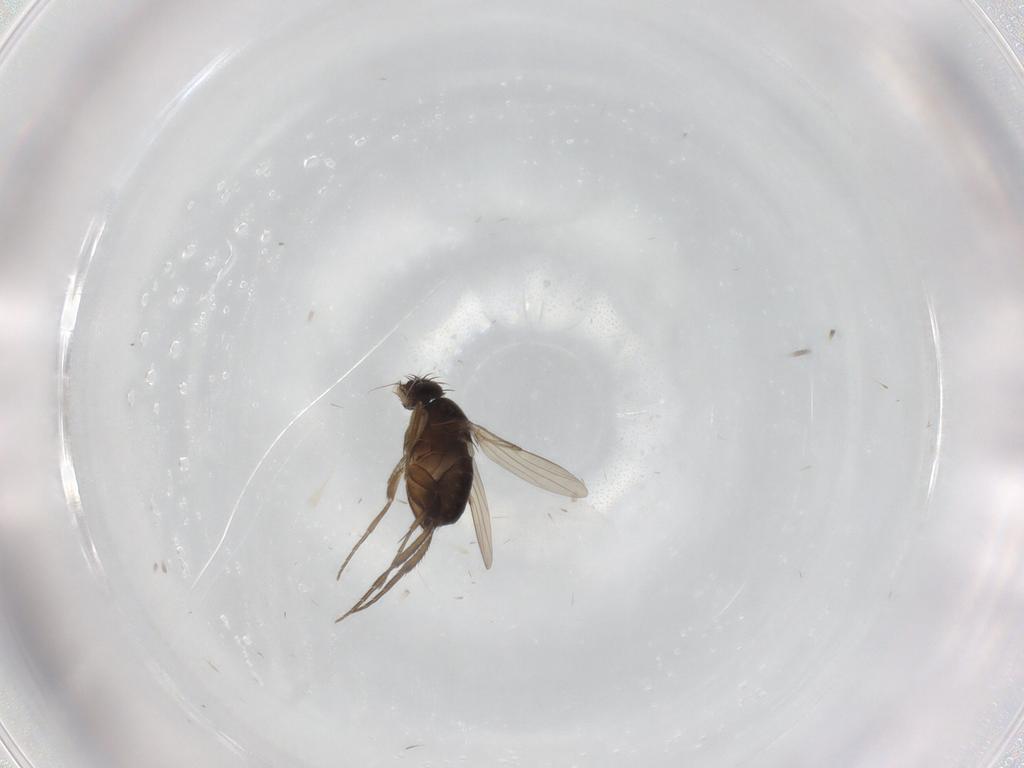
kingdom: Animalia
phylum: Arthropoda
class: Insecta
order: Diptera
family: Phoridae
